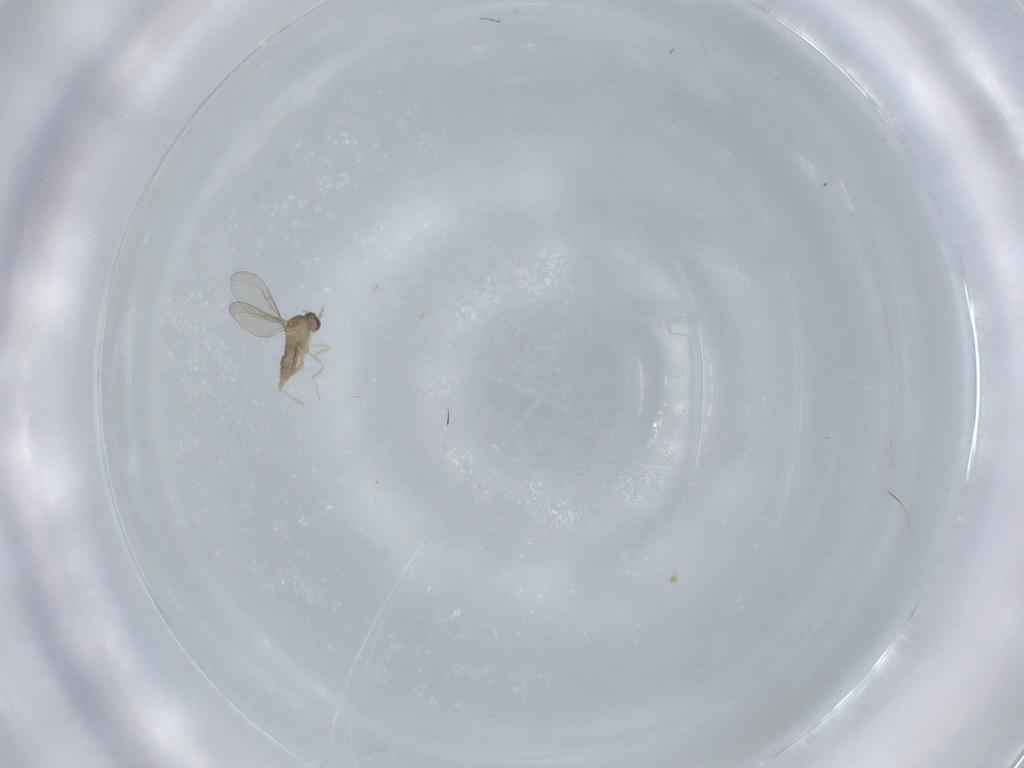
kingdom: Animalia
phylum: Arthropoda
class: Insecta
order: Diptera
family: Cecidomyiidae
